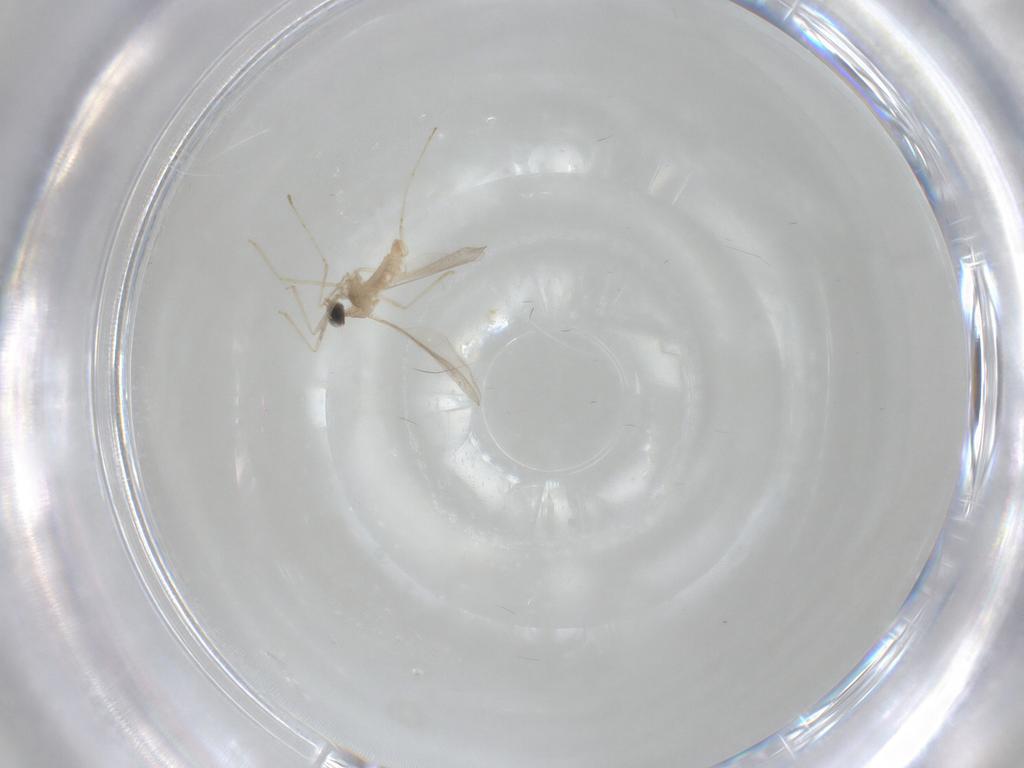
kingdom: Animalia
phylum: Arthropoda
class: Insecta
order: Diptera
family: Cecidomyiidae
